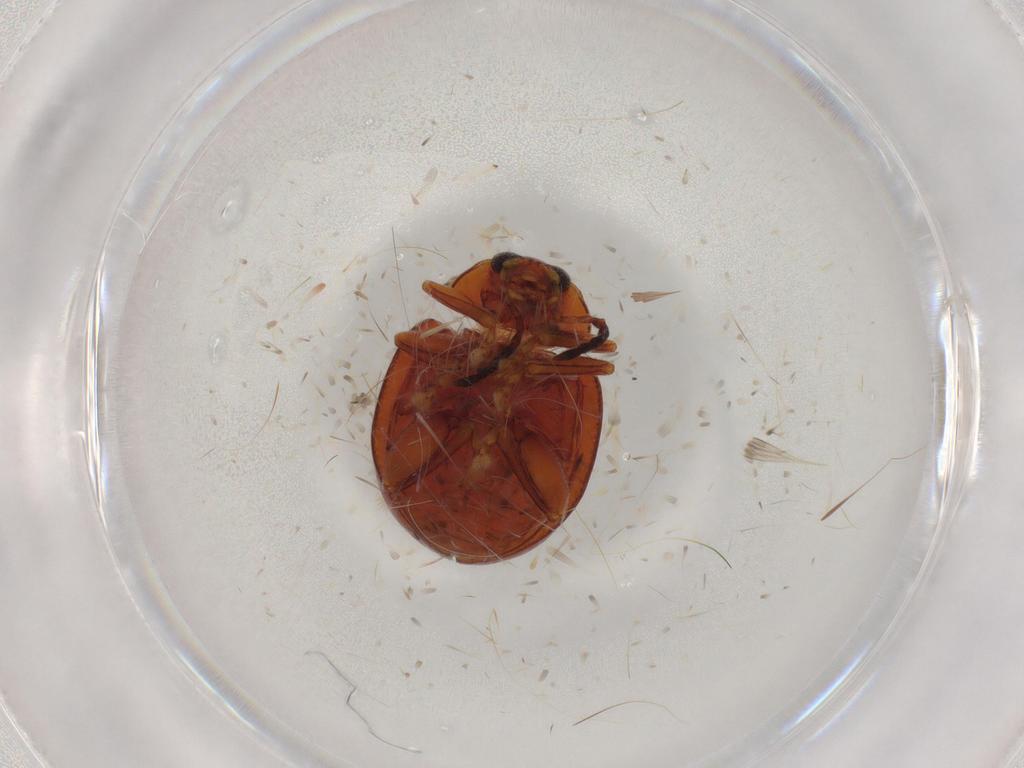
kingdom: Animalia
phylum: Arthropoda
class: Insecta
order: Coleoptera
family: Chrysomelidae
